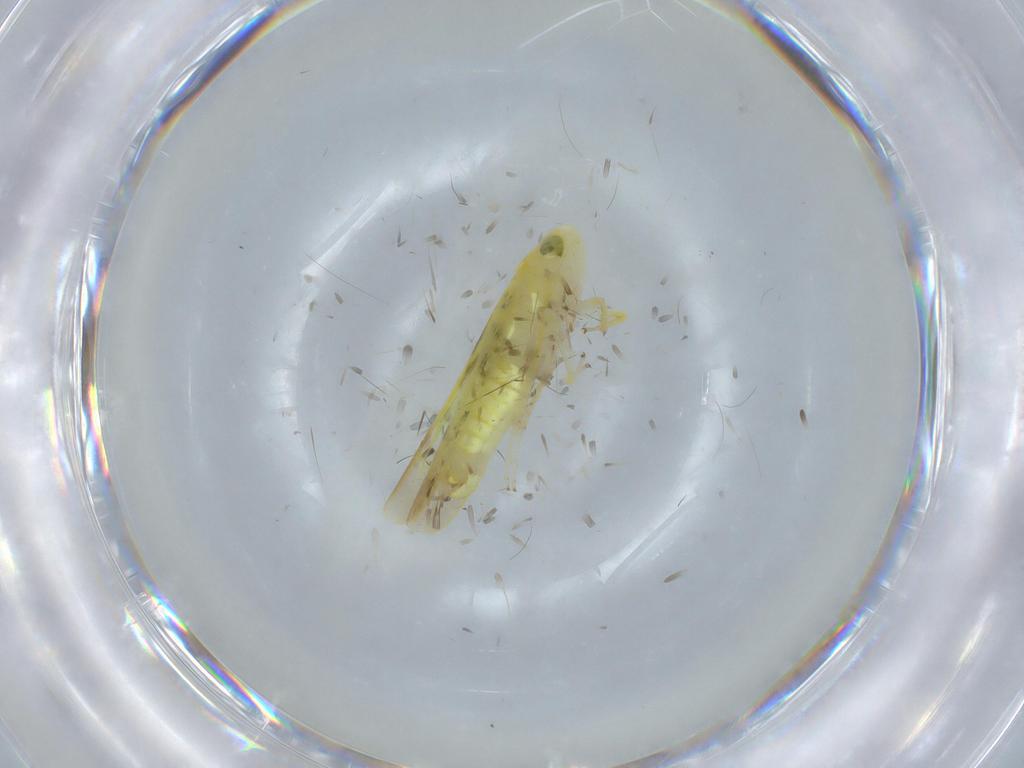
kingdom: Animalia
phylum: Arthropoda
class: Insecta
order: Hemiptera
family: Cicadellidae
